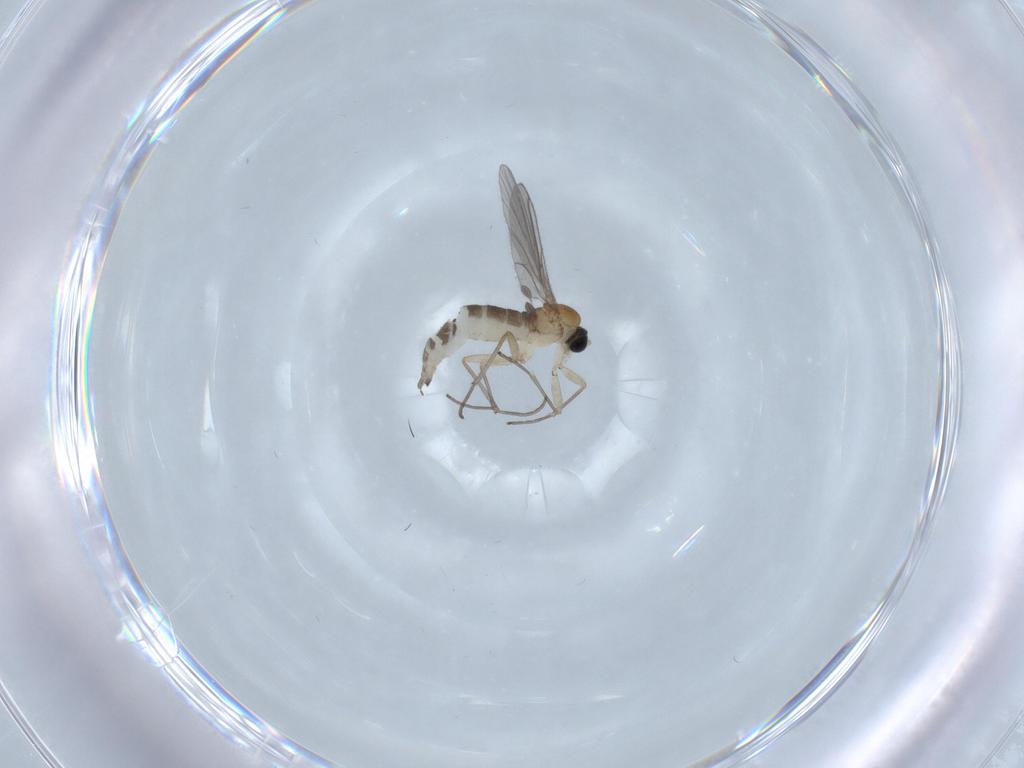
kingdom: Animalia
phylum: Arthropoda
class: Insecta
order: Diptera
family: Sciaridae
